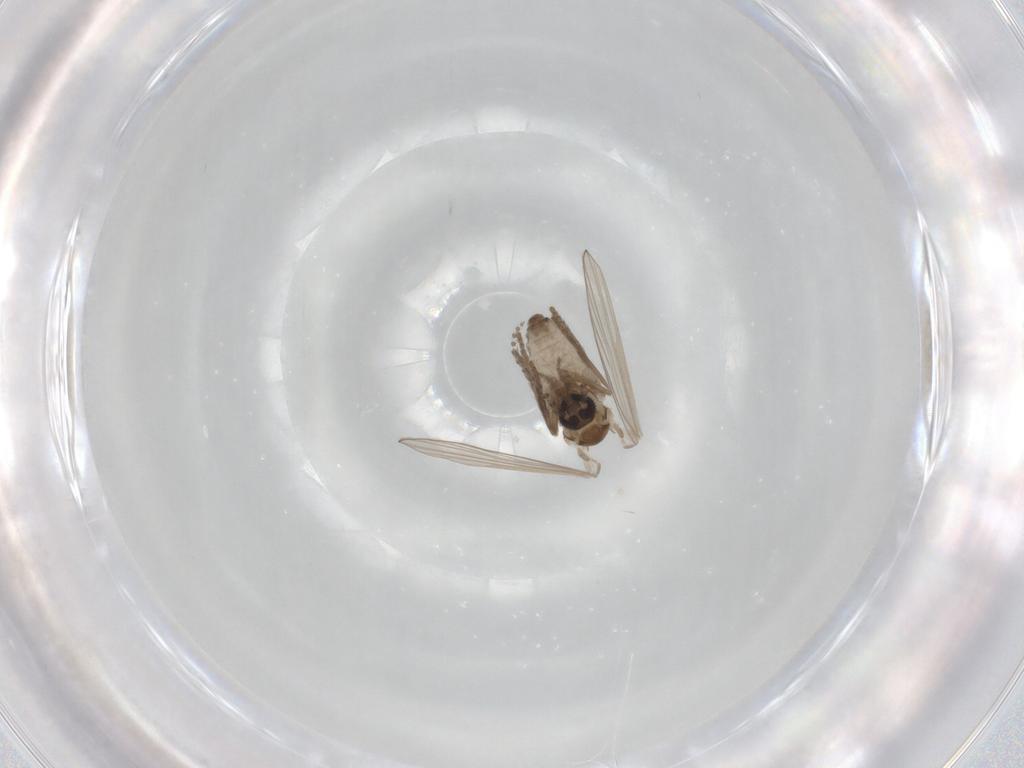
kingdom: Animalia
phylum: Arthropoda
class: Insecta
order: Diptera
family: Psychodidae
